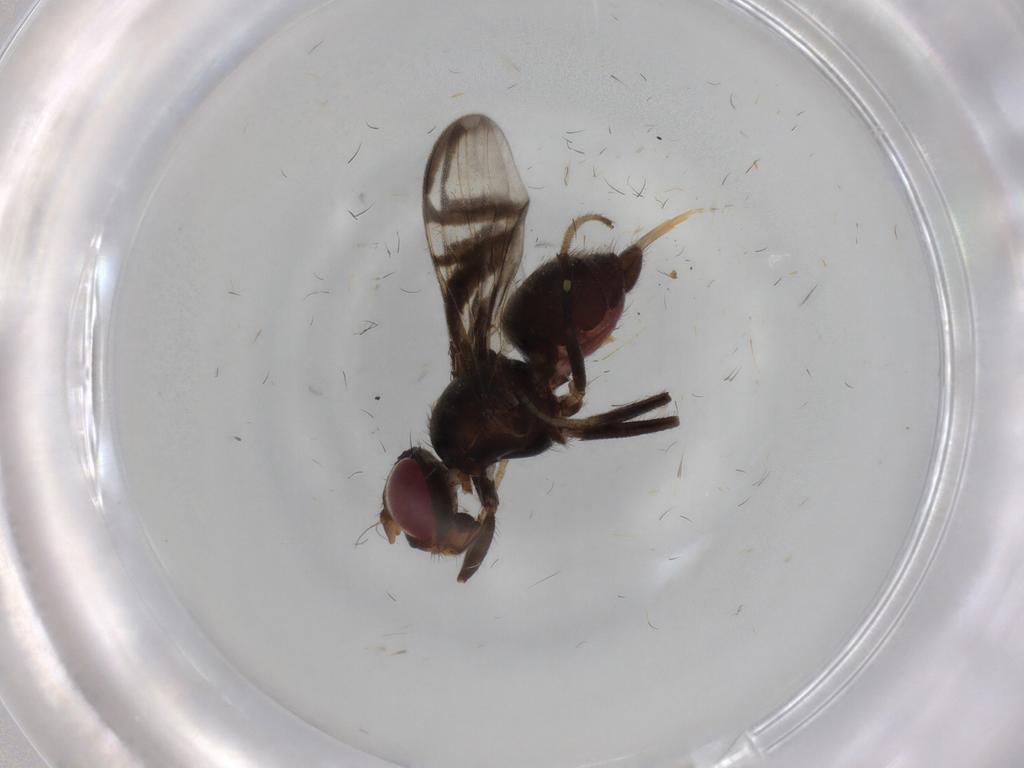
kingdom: Animalia
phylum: Arthropoda
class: Insecta
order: Diptera
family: Platystomatidae
